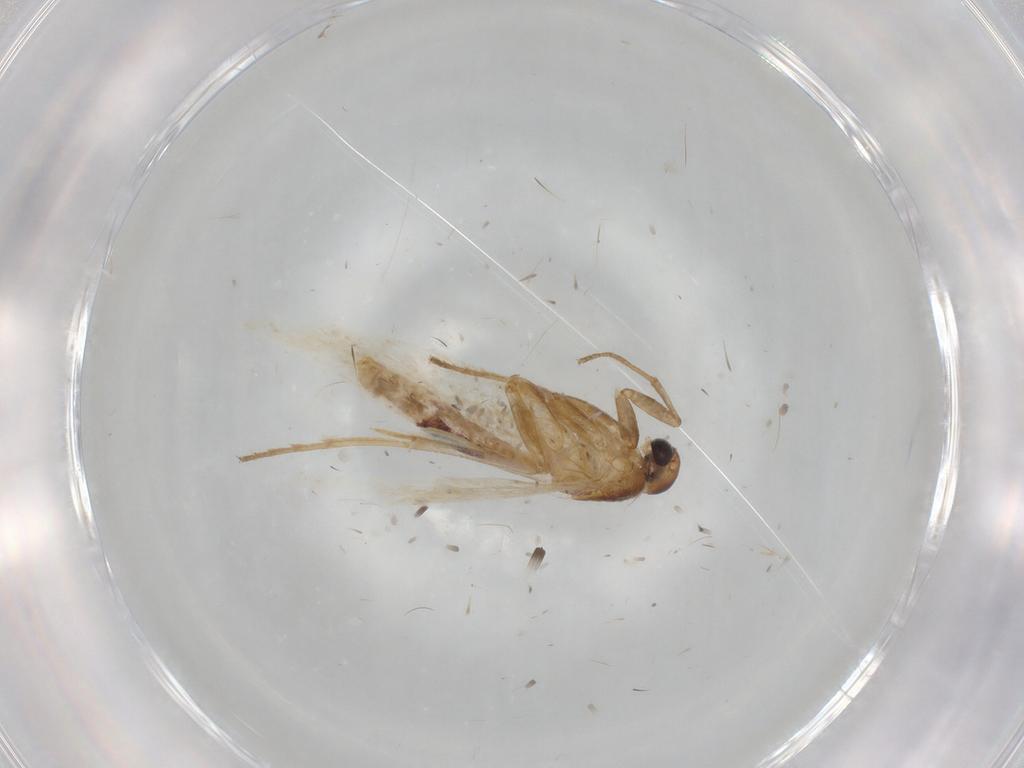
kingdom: Animalia
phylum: Arthropoda
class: Insecta
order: Lepidoptera
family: Gelechiidae
